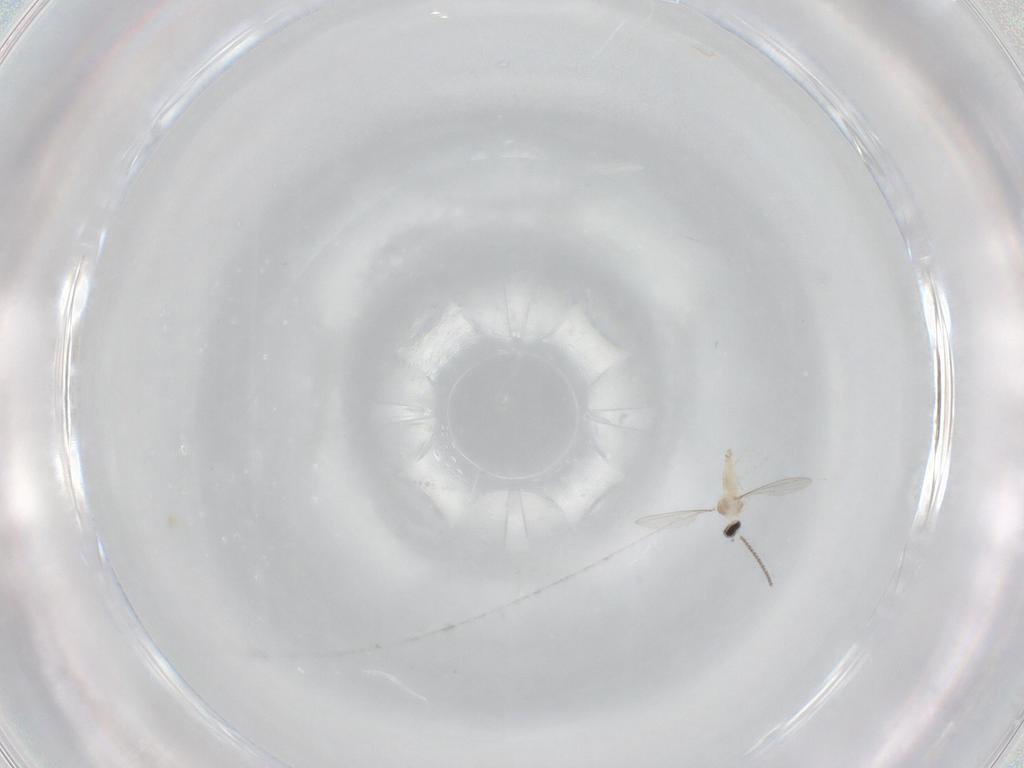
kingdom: Animalia
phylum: Arthropoda
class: Insecta
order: Diptera
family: Cecidomyiidae
